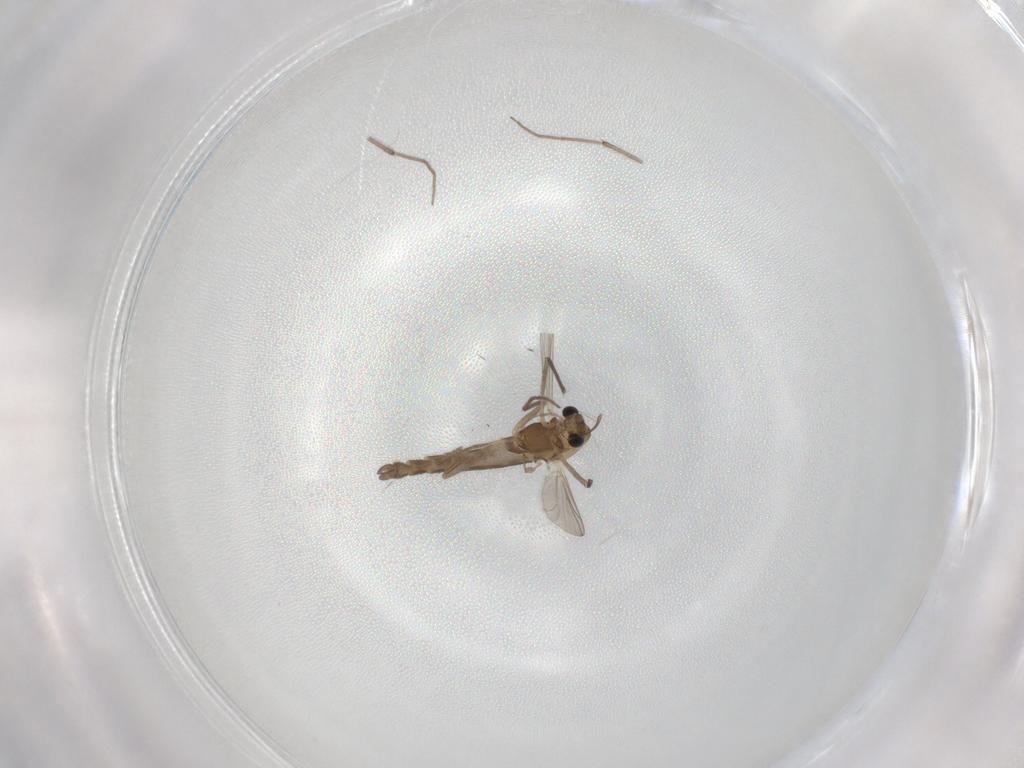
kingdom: Animalia
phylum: Arthropoda
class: Insecta
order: Diptera
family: Chironomidae
